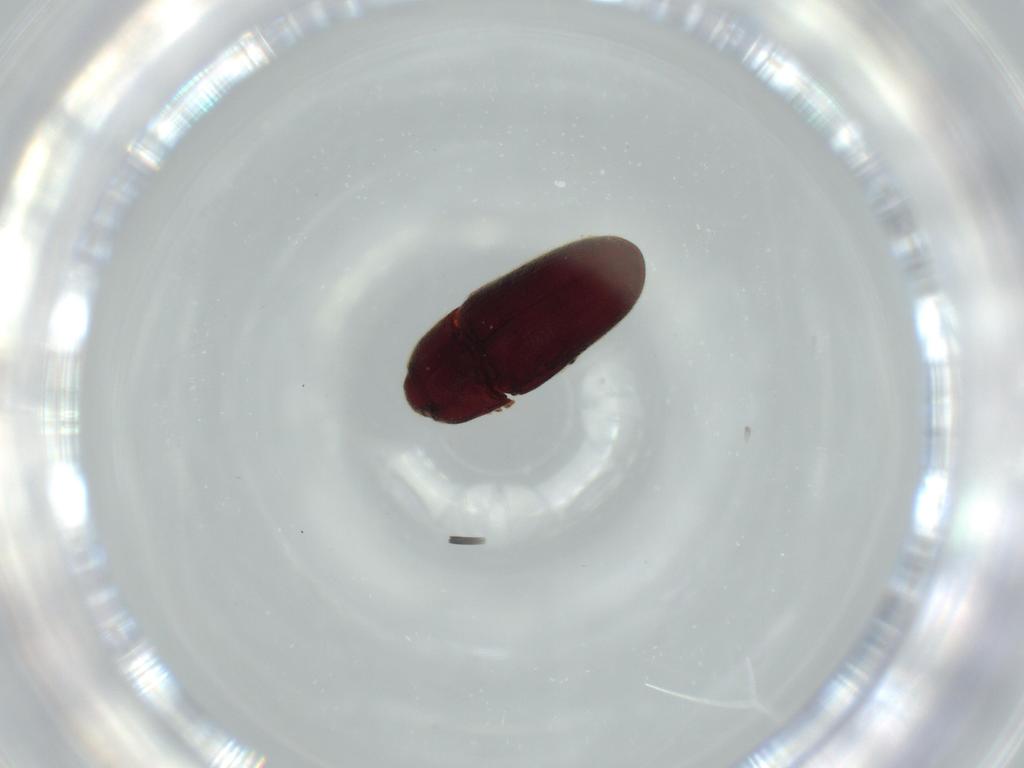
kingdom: Animalia
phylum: Arthropoda
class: Insecta
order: Coleoptera
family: Throscidae
